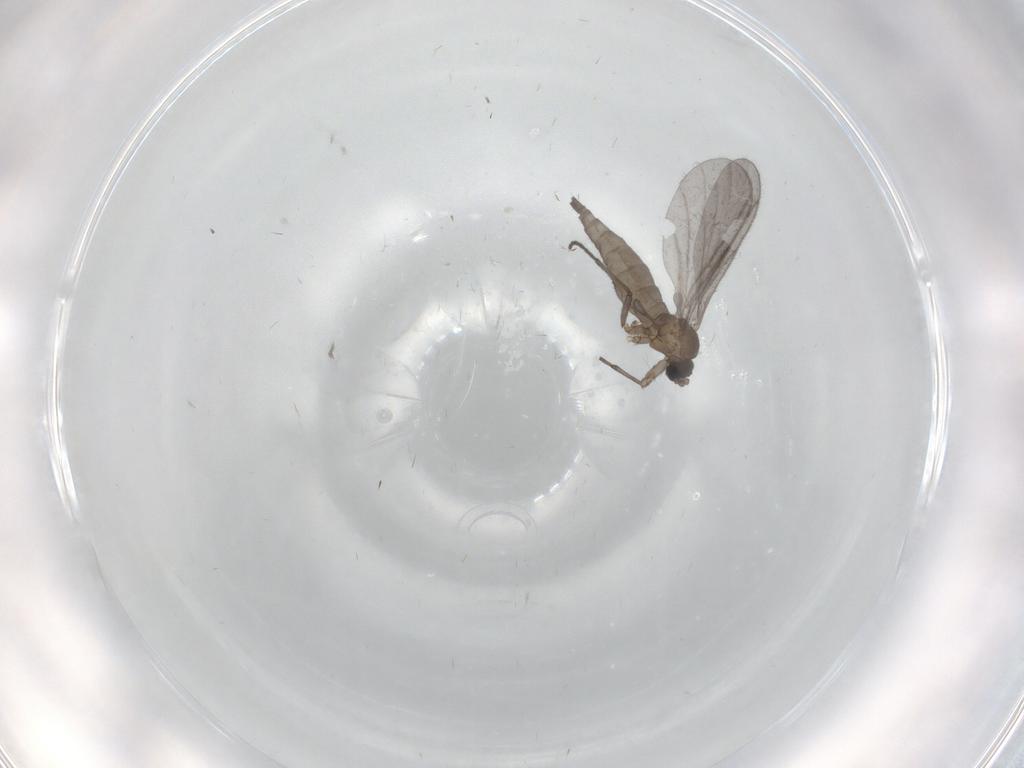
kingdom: Animalia
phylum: Arthropoda
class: Insecta
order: Diptera
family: Sciaridae
